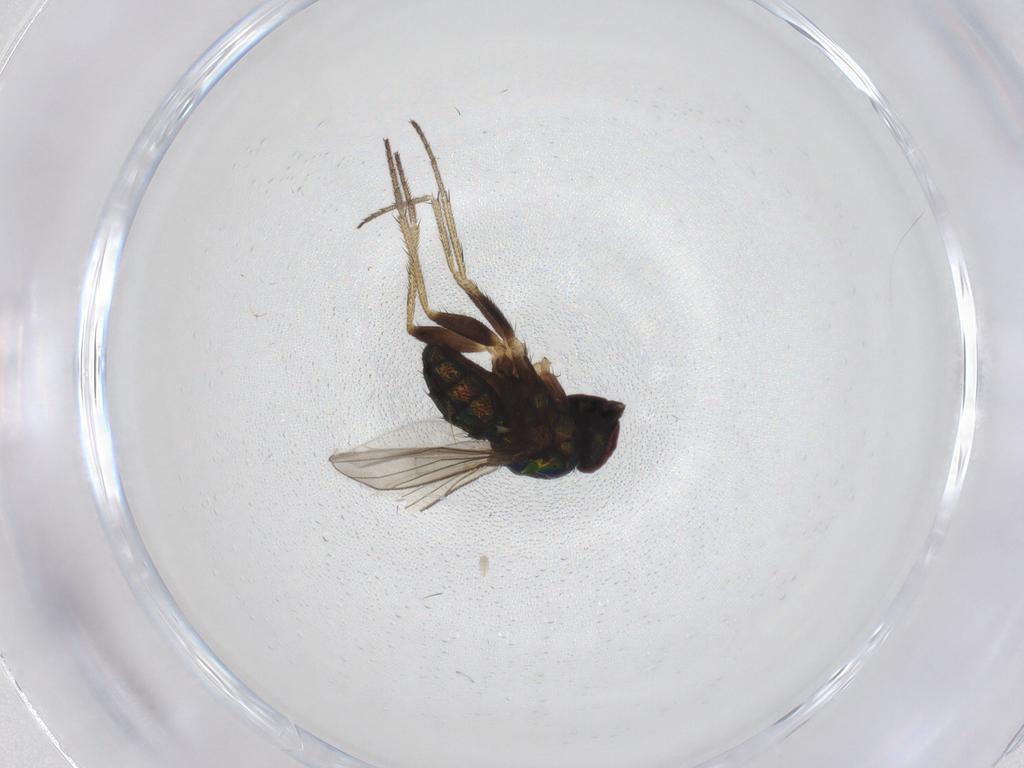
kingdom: Animalia
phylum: Arthropoda
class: Insecta
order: Diptera
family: Dolichopodidae
